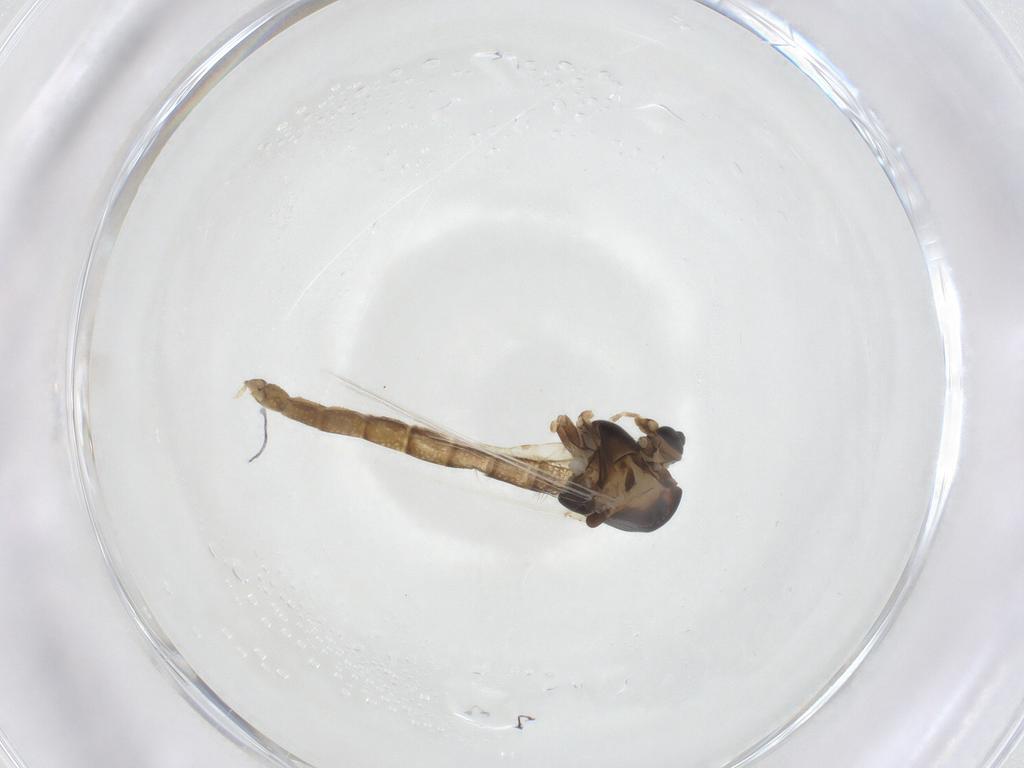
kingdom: Animalia
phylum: Arthropoda
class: Insecta
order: Diptera
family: Chironomidae
